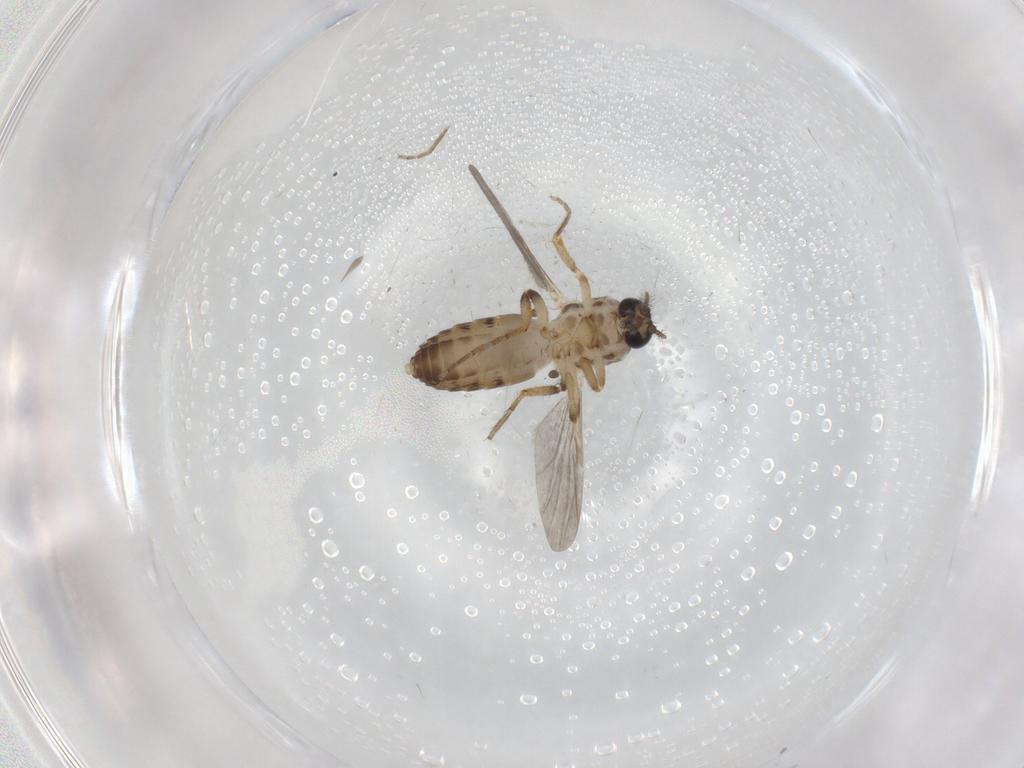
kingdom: Animalia
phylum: Arthropoda
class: Insecta
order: Diptera
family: Ceratopogonidae
